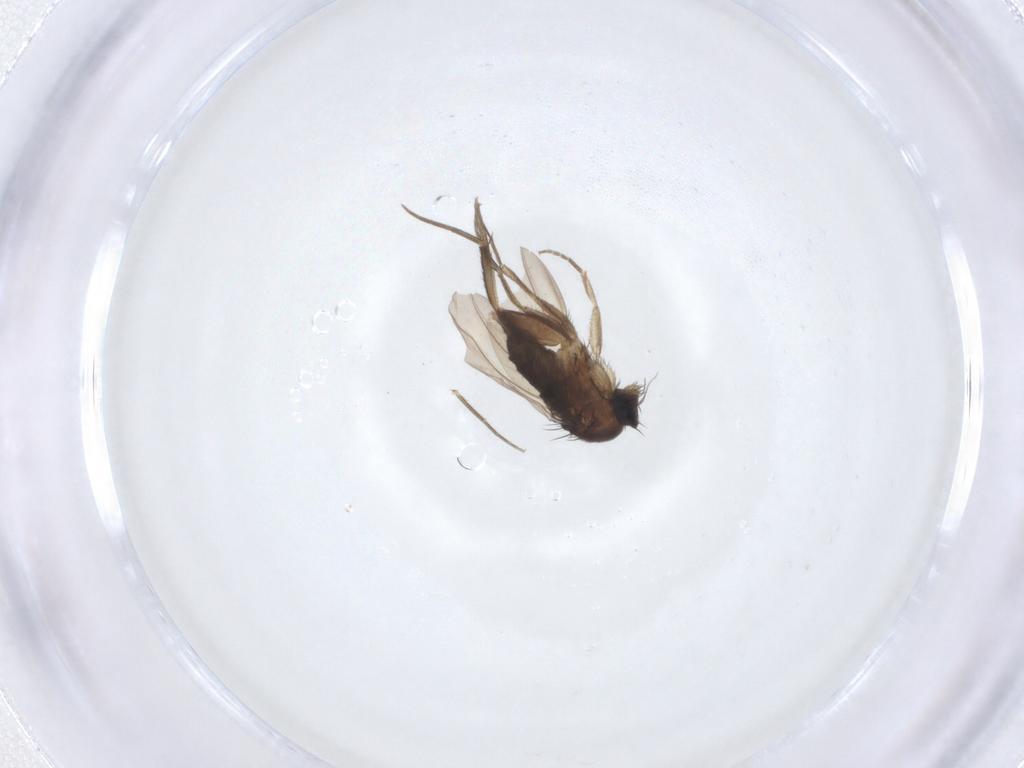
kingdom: Animalia
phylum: Arthropoda
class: Insecta
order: Diptera
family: Phoridae
